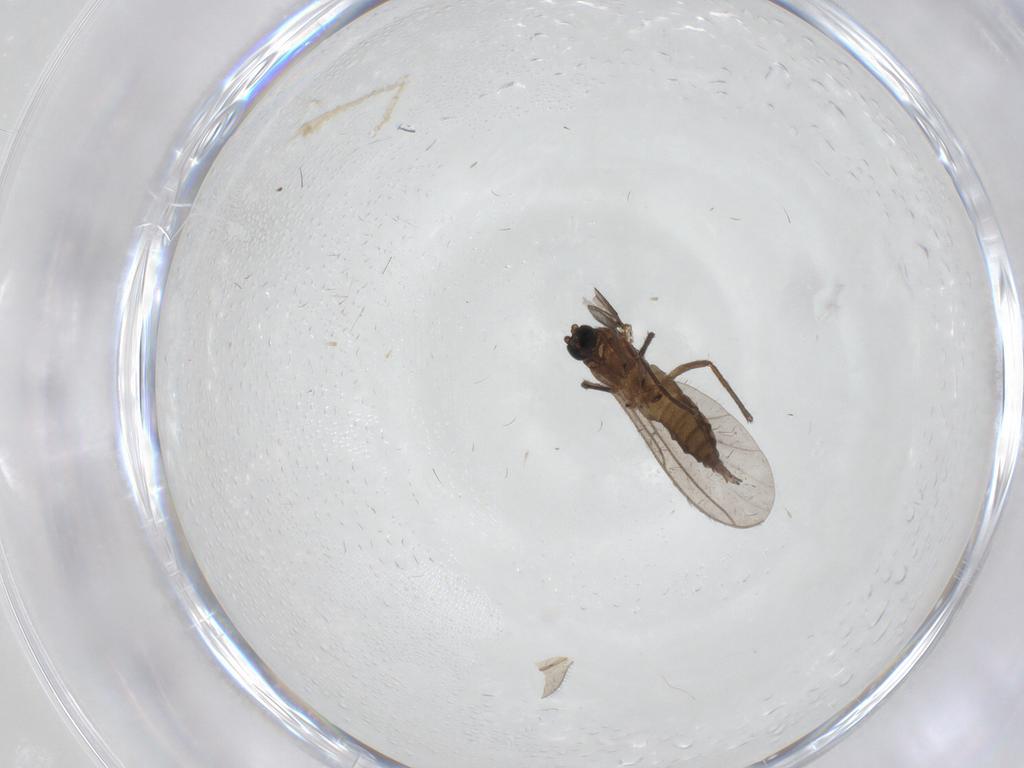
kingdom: Animalia
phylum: Arthropoda
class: Insecta
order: Diptera
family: Sciaridae
